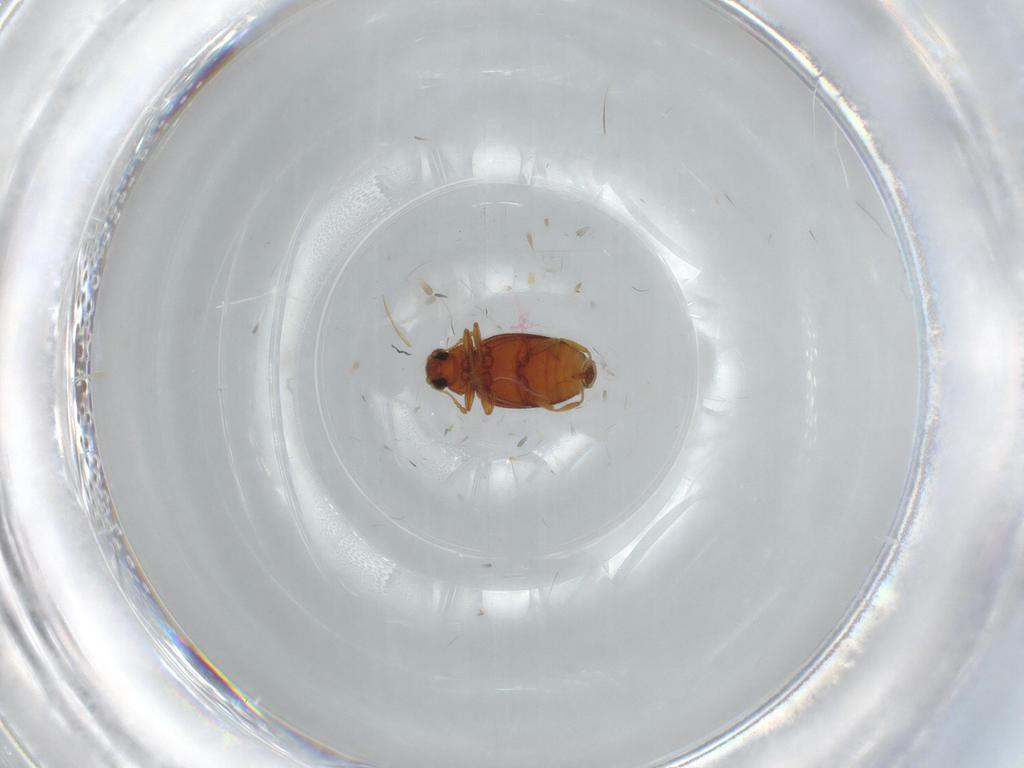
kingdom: Animalia
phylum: Arthropoda
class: Insecta
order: Coleoptera
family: Latridiidae
